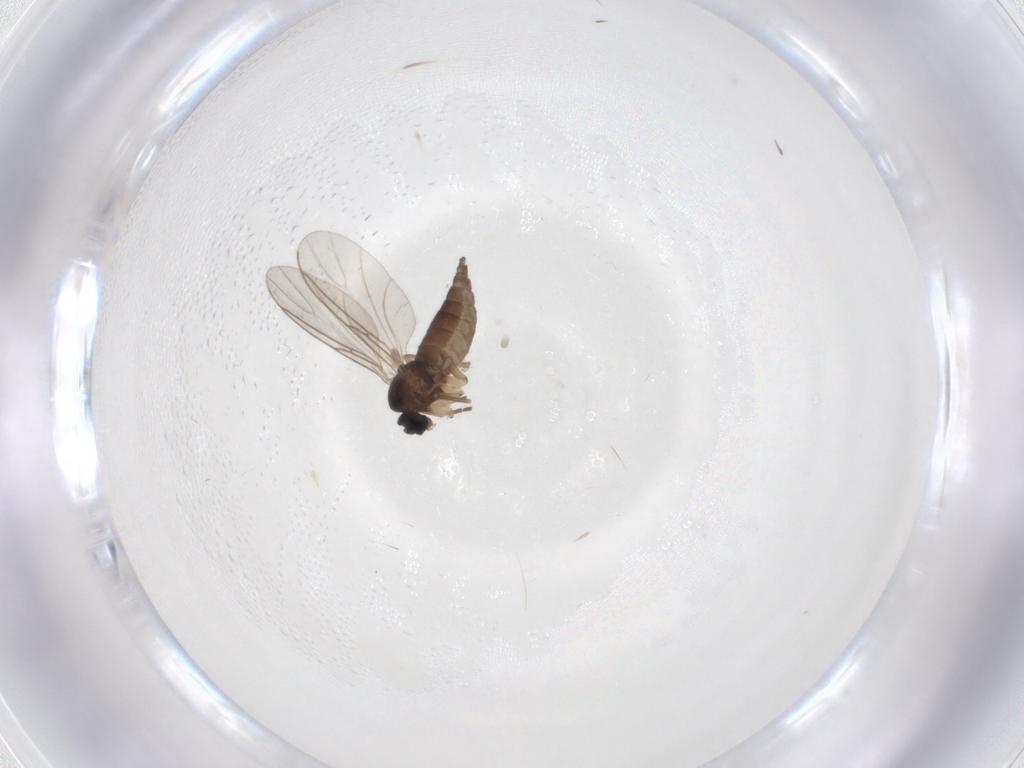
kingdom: Animalia
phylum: Arthropoda
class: Insecta
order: Diptera
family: Sciaridae
